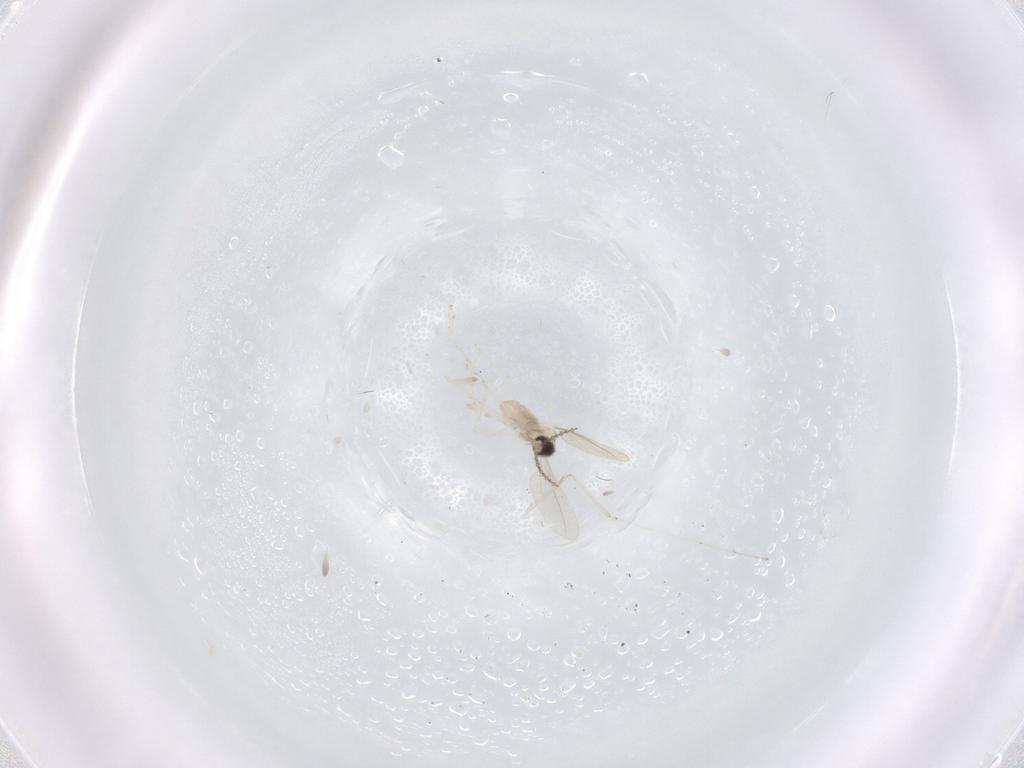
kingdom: Animalia
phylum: Arthropoda
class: Insecta
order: Diptera
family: Cecidomyiidae
